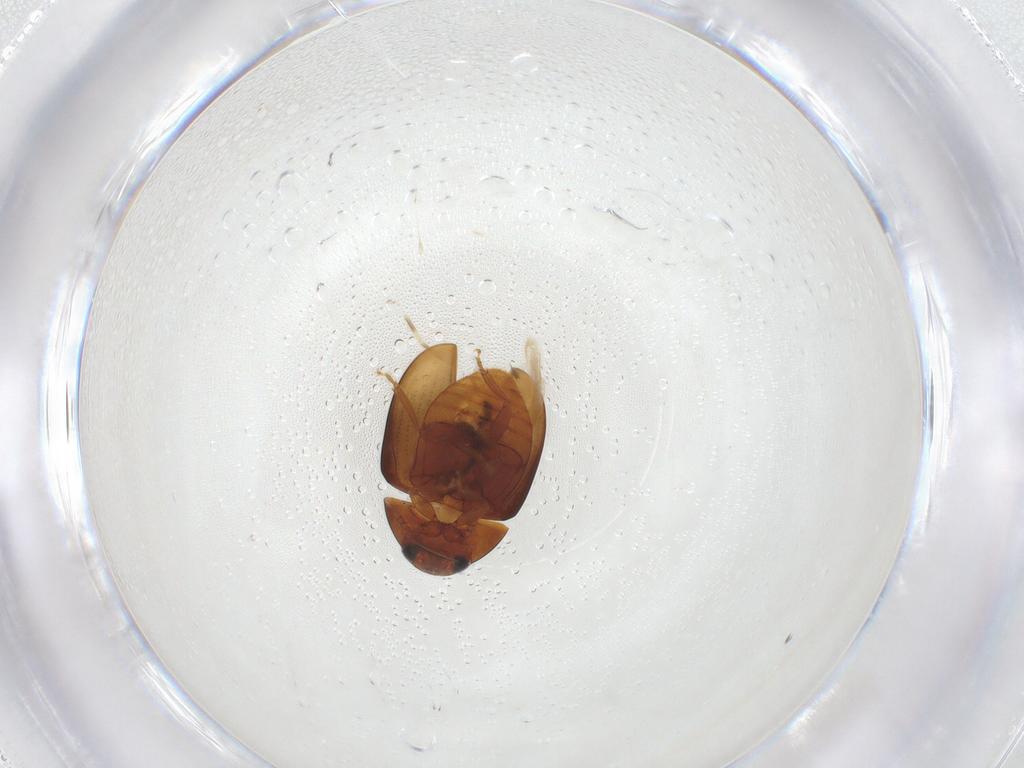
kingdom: Animalia
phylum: Arthropoda
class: Insecta
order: Coleoptera
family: Phalacridae
